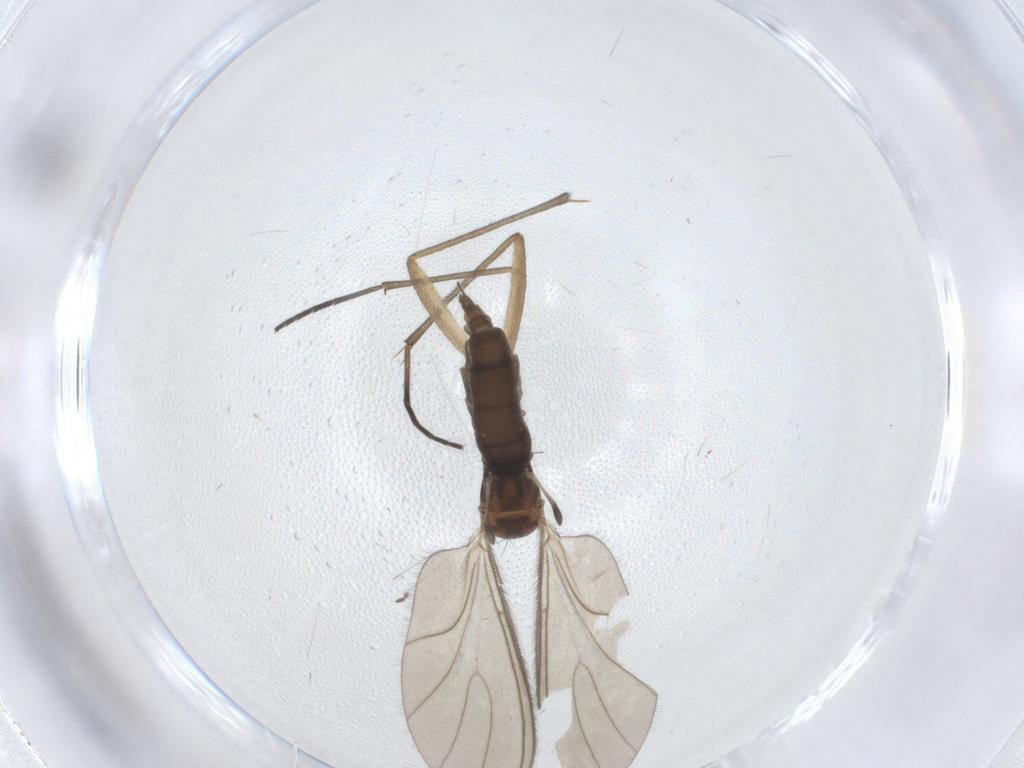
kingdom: Animalia
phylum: Arthropoda
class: Insecta
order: Diptera
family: Sciaridae
